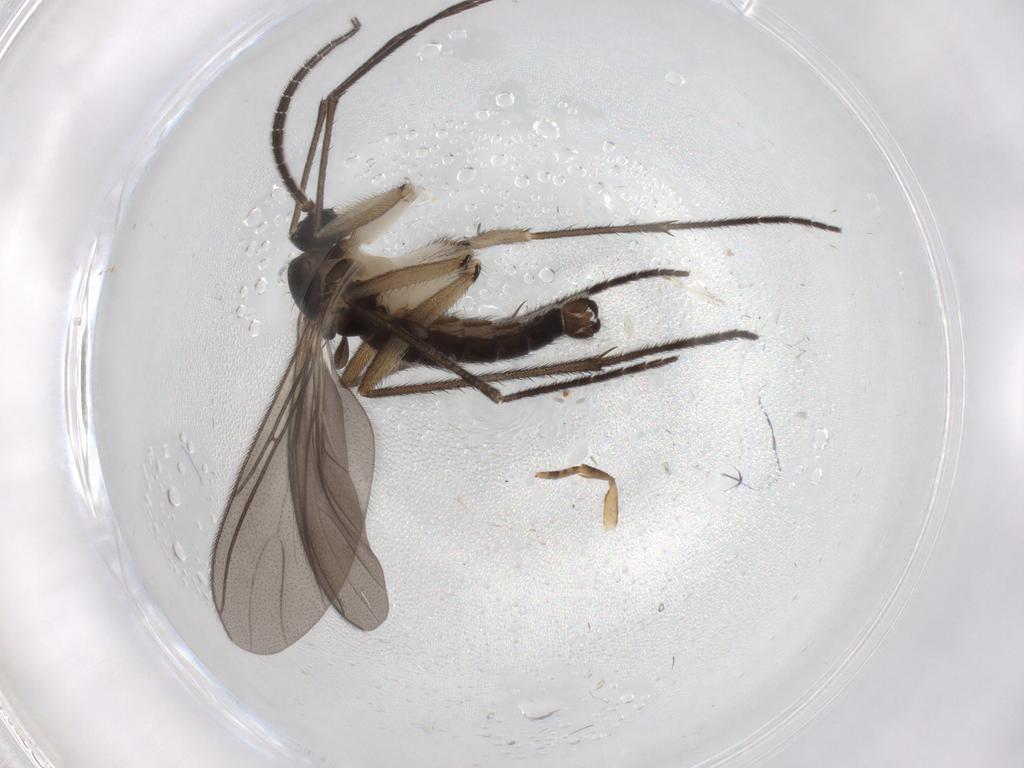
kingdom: Animalia
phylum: Arthropoda
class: Insecta
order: Diptera
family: Sciaridae
